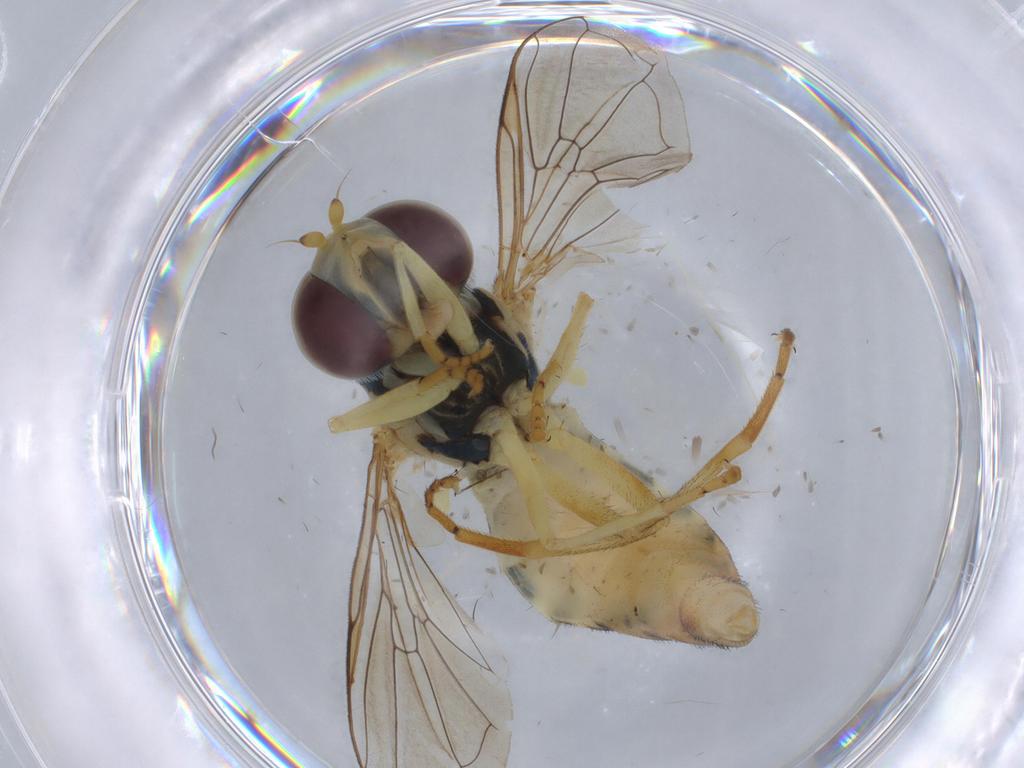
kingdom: Animalia
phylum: Arthropoda
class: Insecta
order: Diptera
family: Syrphidae
